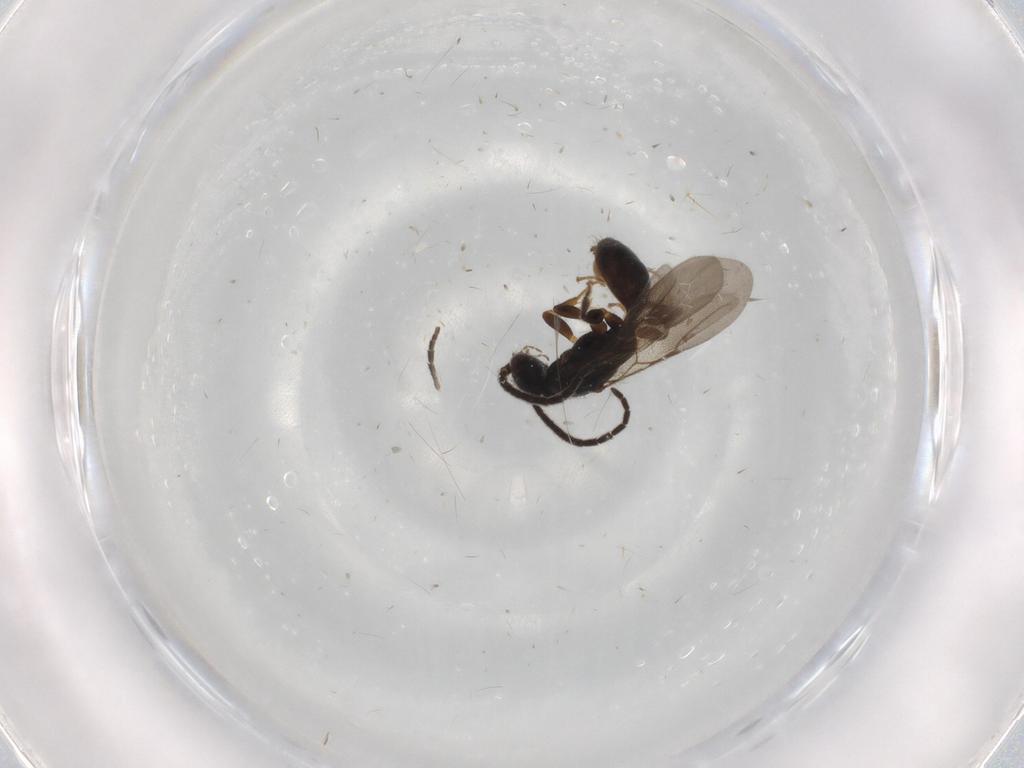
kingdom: Animalia
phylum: Arthropoda
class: Insecta
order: Hymenoptera
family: Bethylidae
